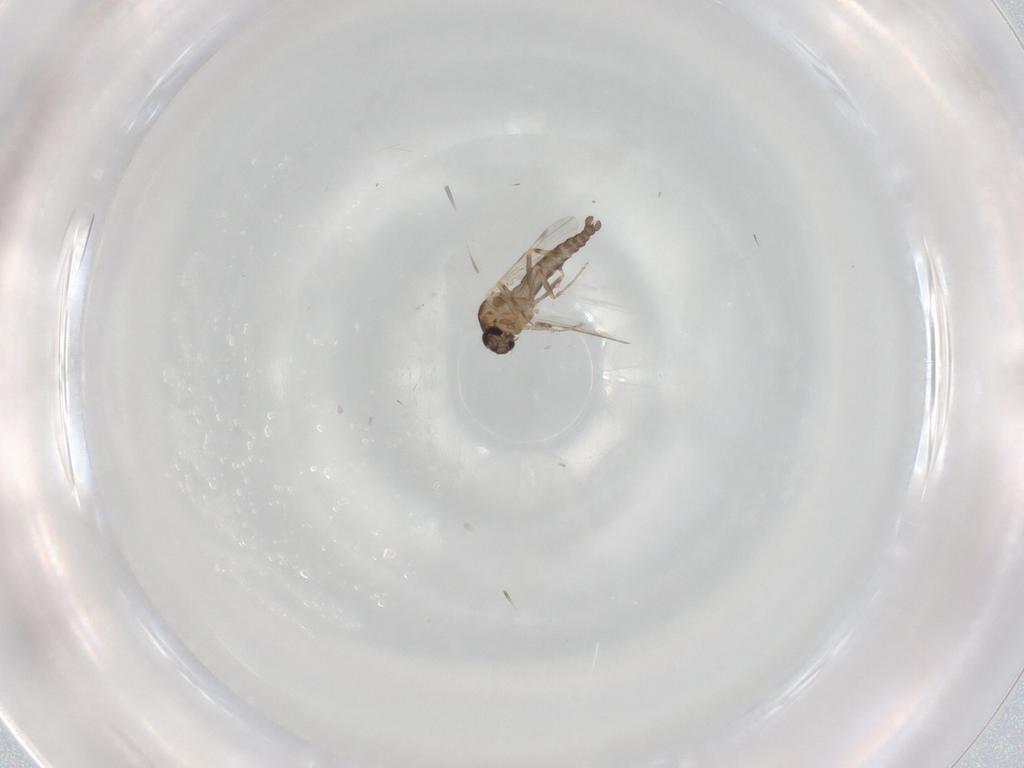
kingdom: Animalia
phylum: Arthropoda
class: Insecta
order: Diptera
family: Ceratopogonidae
